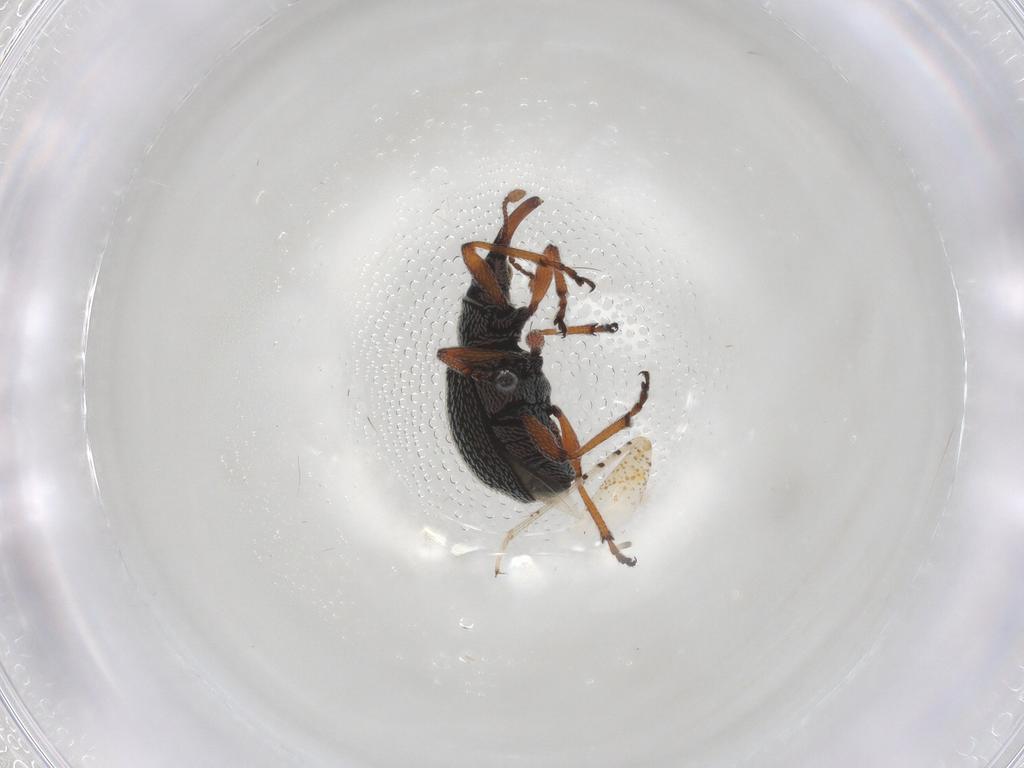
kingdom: Animalia
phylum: Arthropoda
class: Insecta
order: Coleoptera
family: Brentidae
